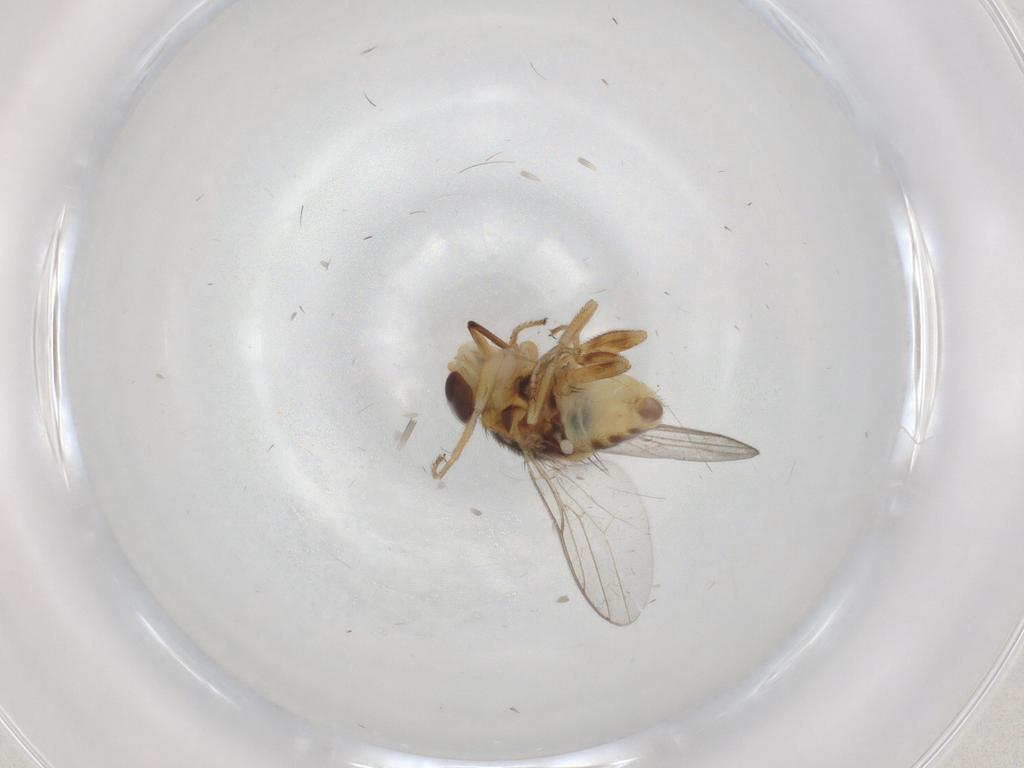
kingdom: Animalia
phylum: Arthropoda
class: Insecta
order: Diptera
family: Chloropidae
